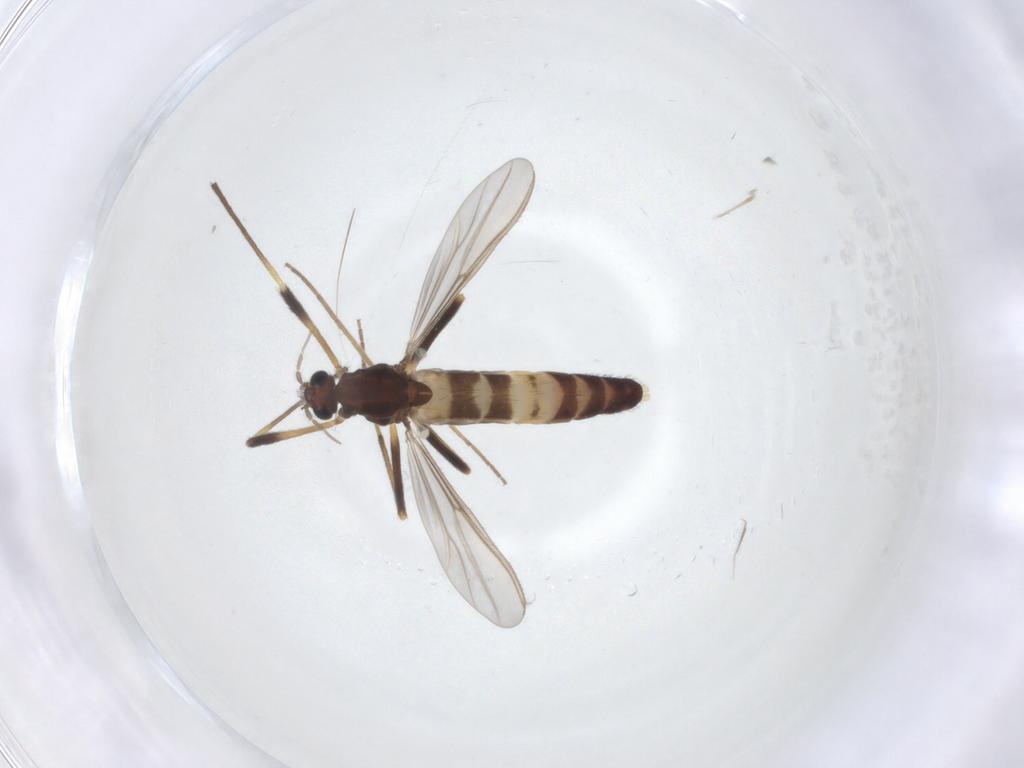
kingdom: Animalia
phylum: Arthropoda
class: Insecta
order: Diptera
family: Chironomidae
